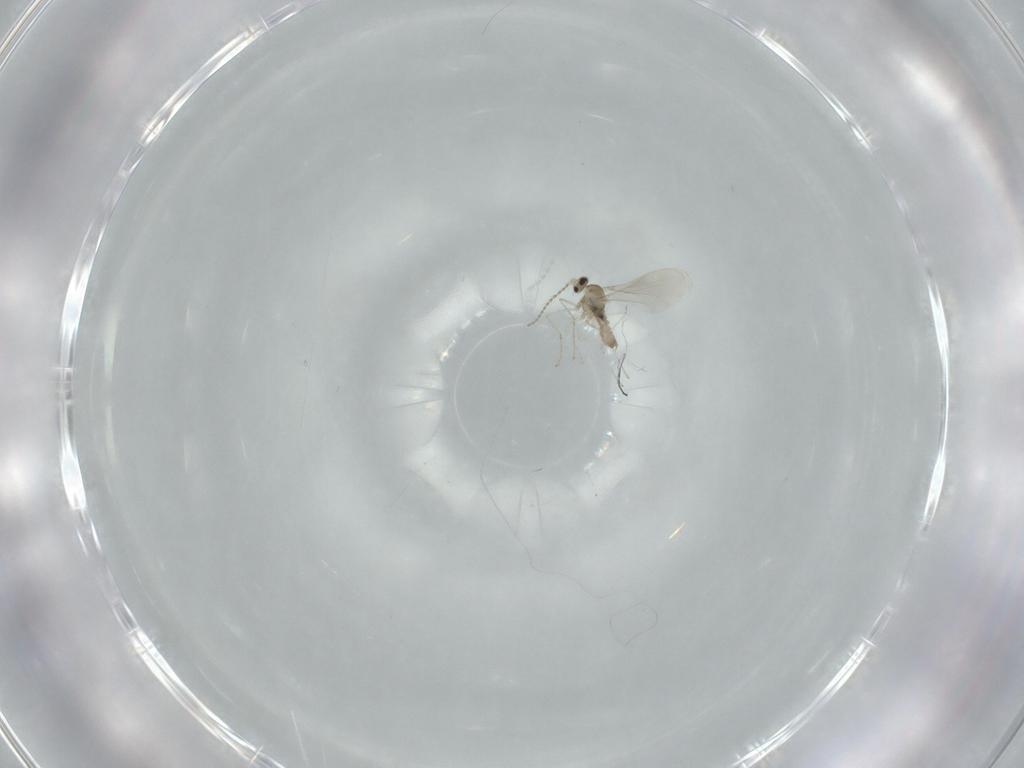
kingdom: Animalia
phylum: Arthropoda
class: Insecta
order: Diptera
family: Cecidomyiidae
